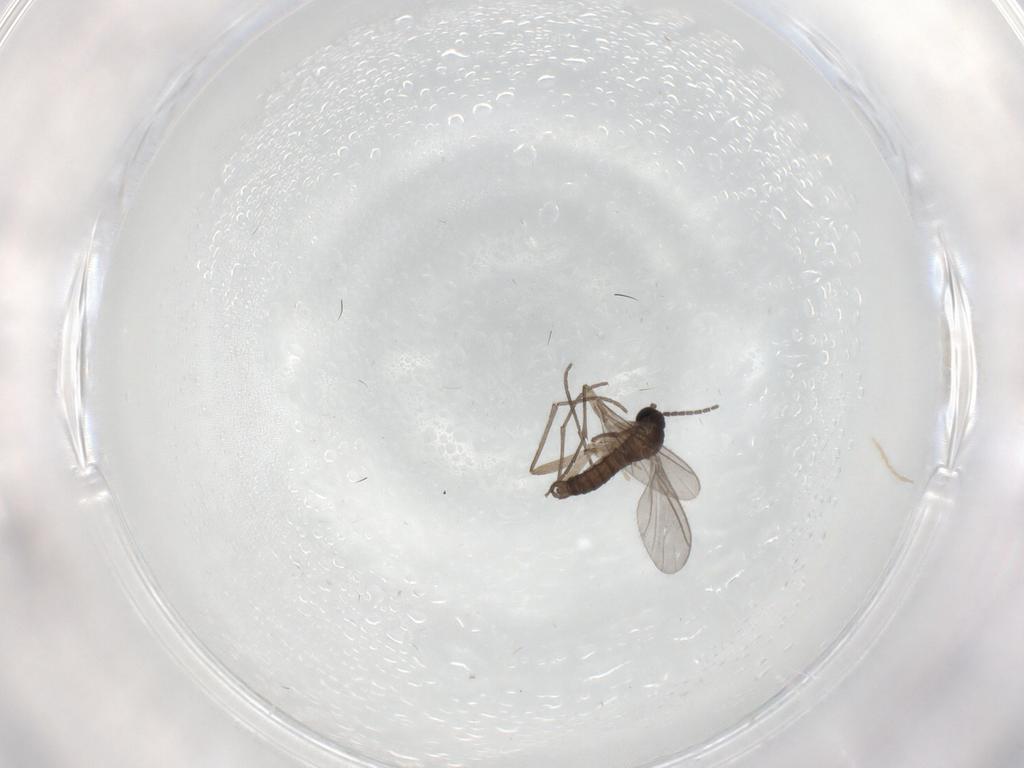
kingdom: Animalia
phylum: Arthropoda
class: Insecta
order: Diptera
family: Sciaridae
